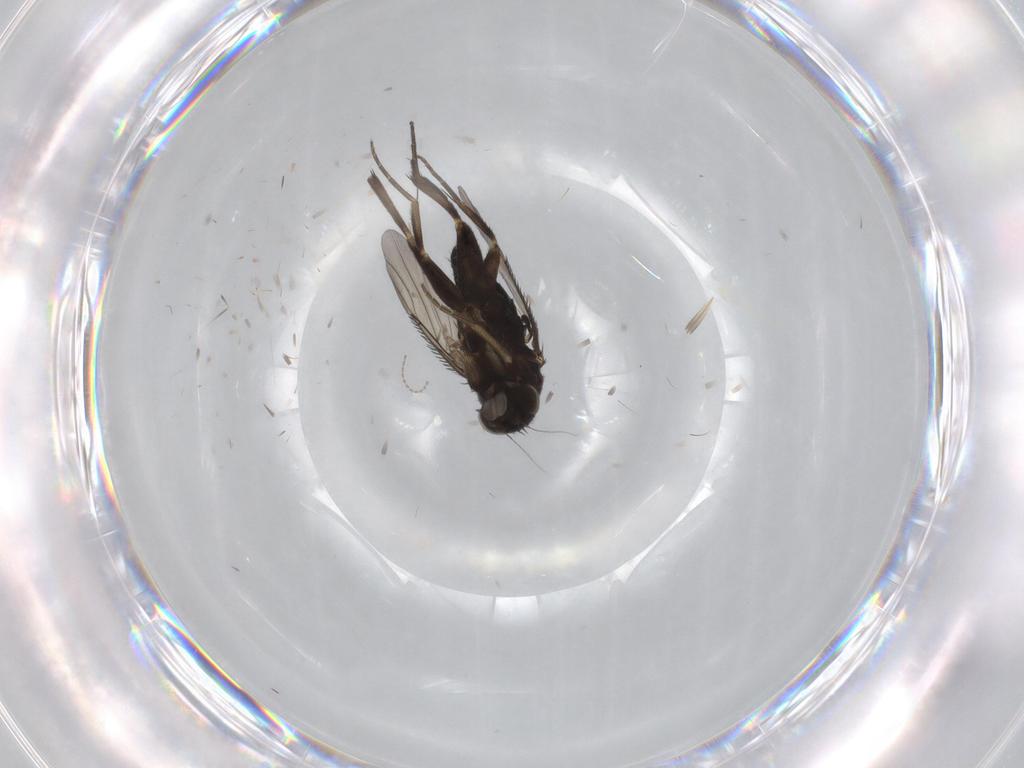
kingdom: Animalia
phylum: Arthropoda
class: Insecta
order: Diptera
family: Phoridae
